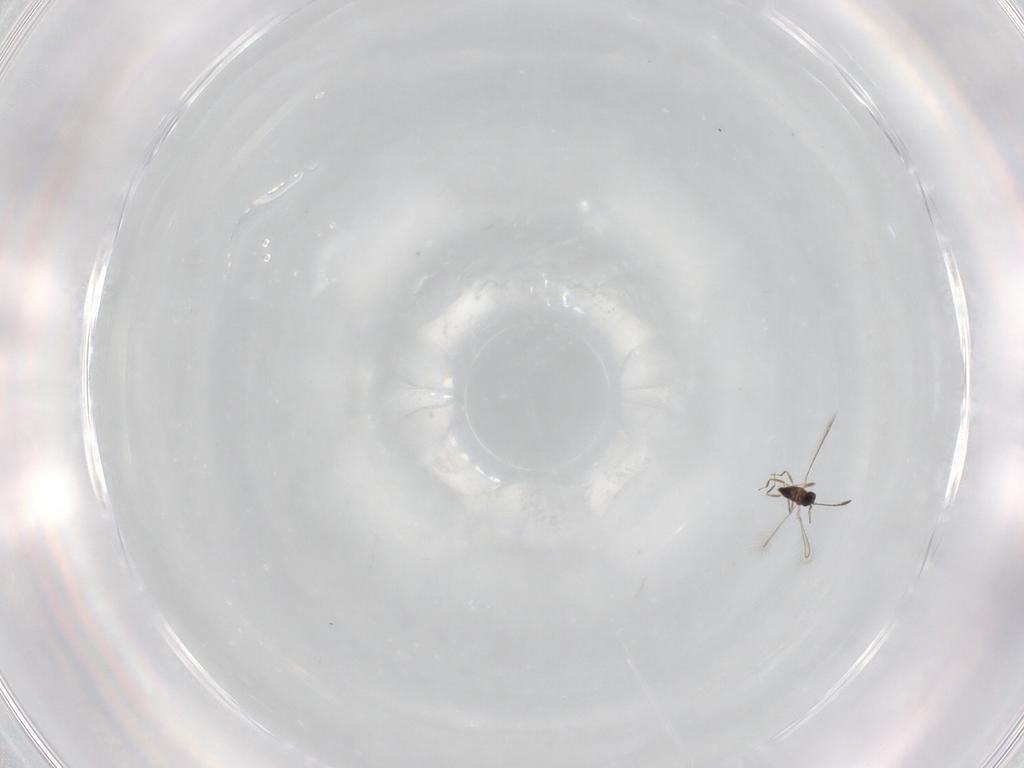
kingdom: Animalia
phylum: Arthropoda
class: Insecta
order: Hymenoptera
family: Mymaridae
